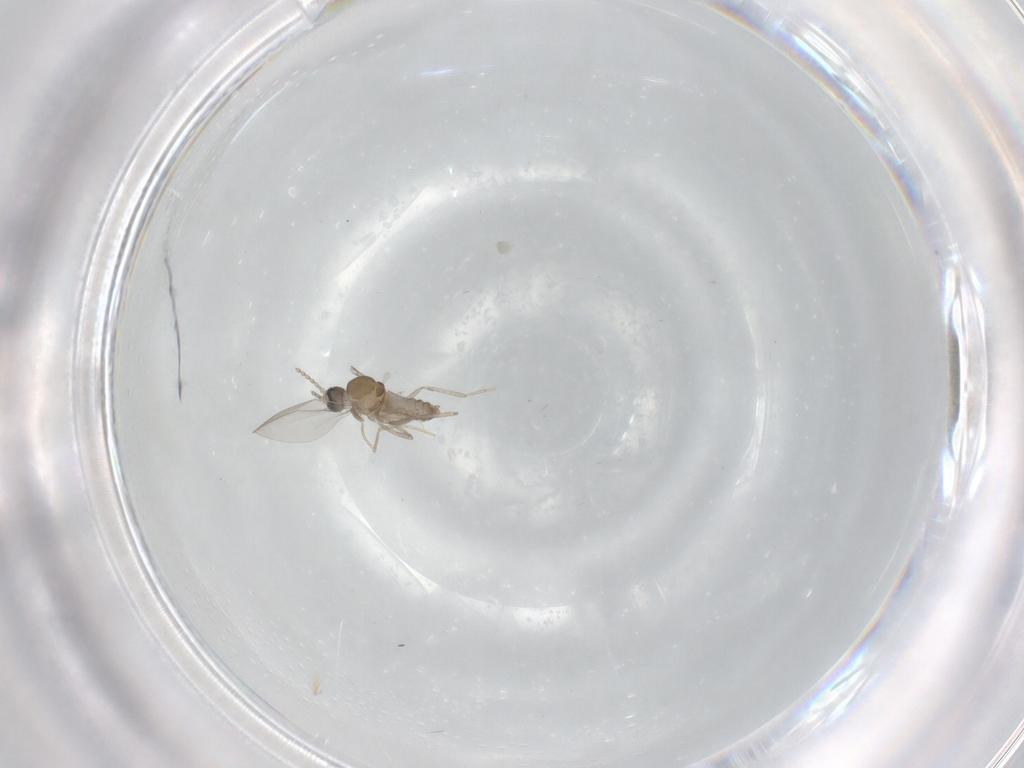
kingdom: Animalia
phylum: Arthropoda
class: Insecta
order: Diptera
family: Cecidomyiidae
